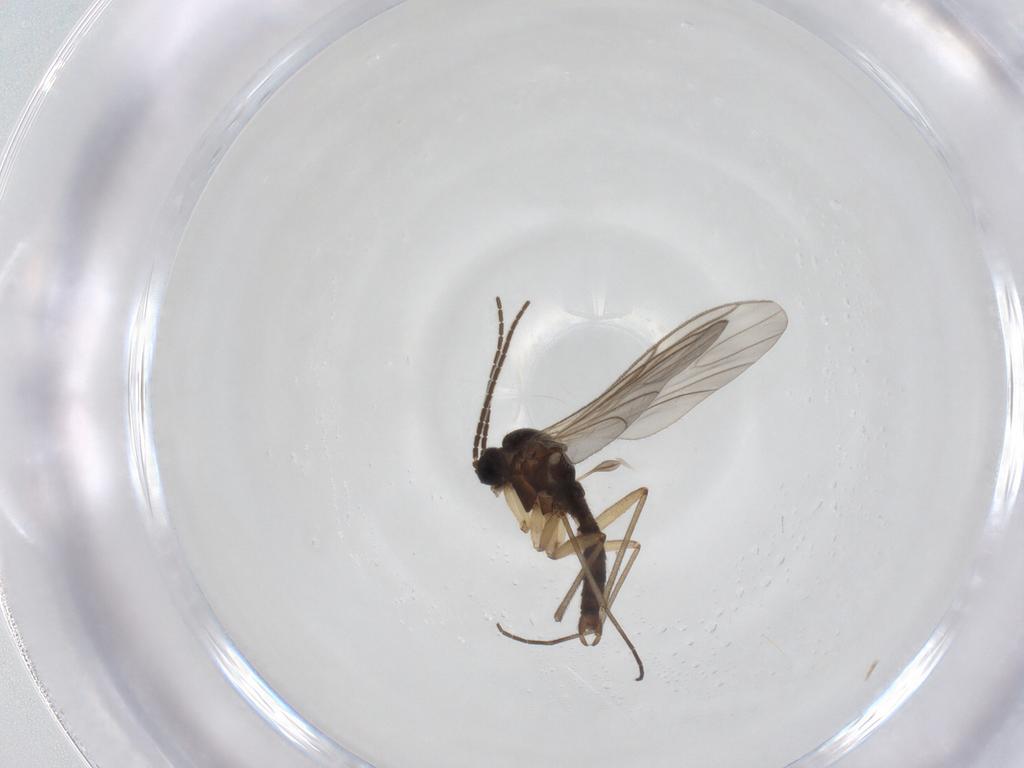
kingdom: Animalia
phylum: Arthropoda
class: Insecta
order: Diptera
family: Sciaridae
